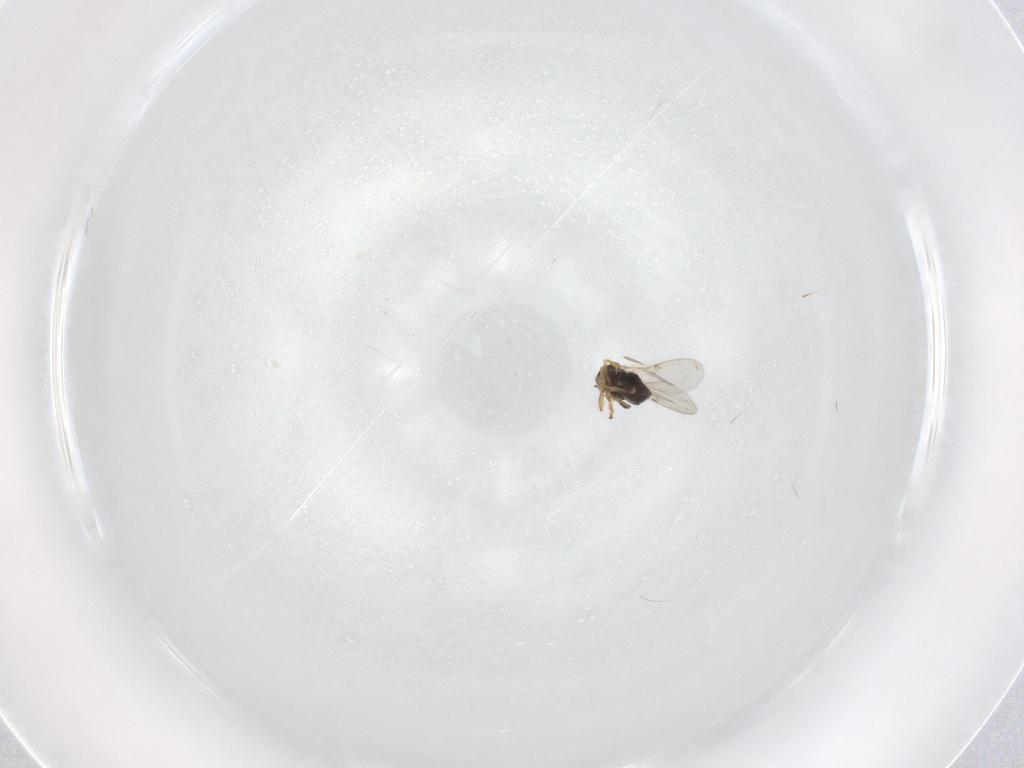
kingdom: Animalia
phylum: Arthropoda
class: Insecta
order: Hymenoptera
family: Encyrtidae
